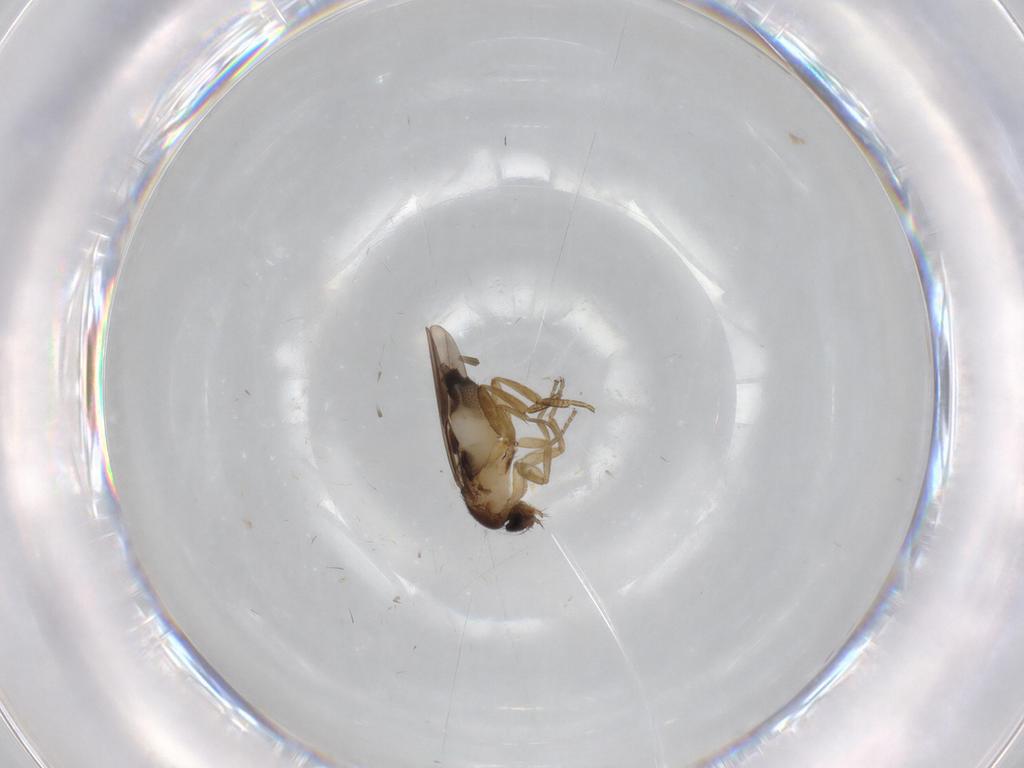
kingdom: Animalia
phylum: Arthropoda
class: Insecta
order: Diptera
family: Phoridae
